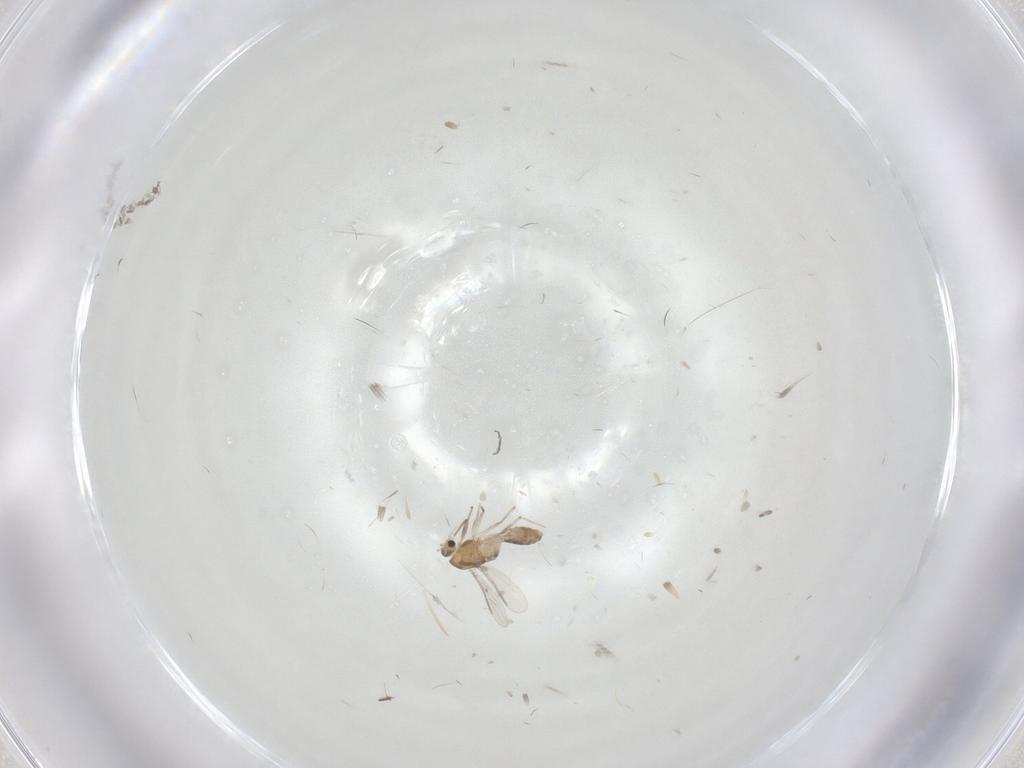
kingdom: Animalia
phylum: Arthropoda
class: Insecta
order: Diptera
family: Chironomidae
